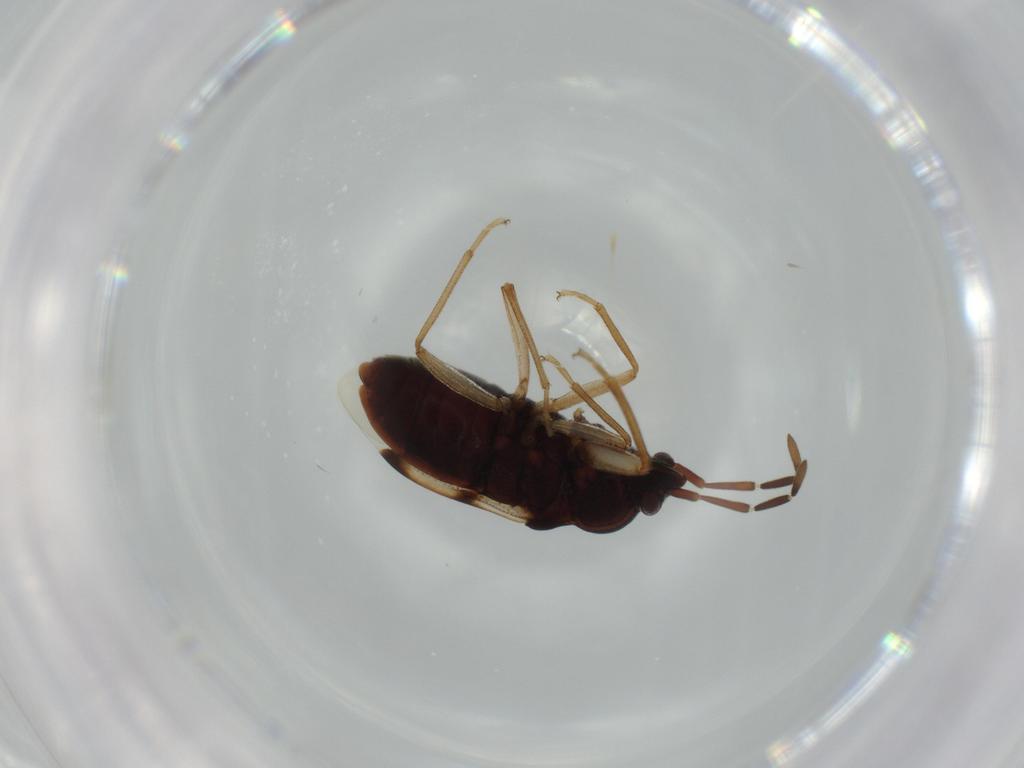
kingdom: Animalia
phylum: Arthropoda
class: Insecta
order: Hemiptera
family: Rhyparochromidae
